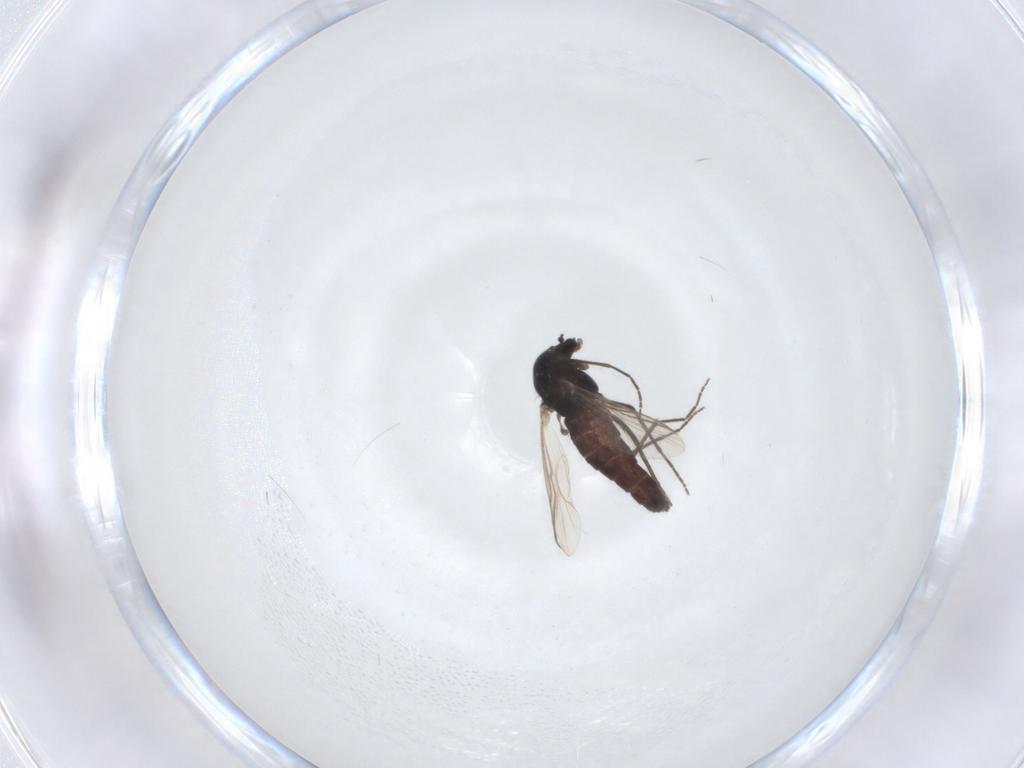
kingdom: Animalia
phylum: Arthropoda
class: Insecta
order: Diptera
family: Chironomidae
